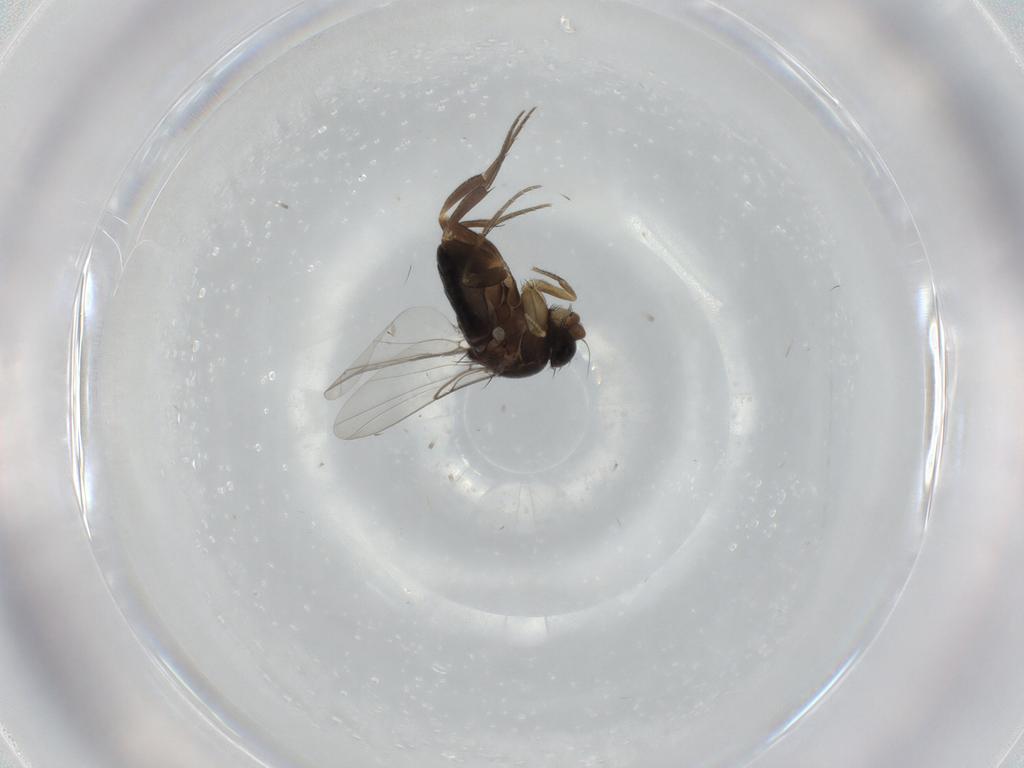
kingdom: Animalia
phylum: Arthropoda
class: Insecta
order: Diptera
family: Phoridae
